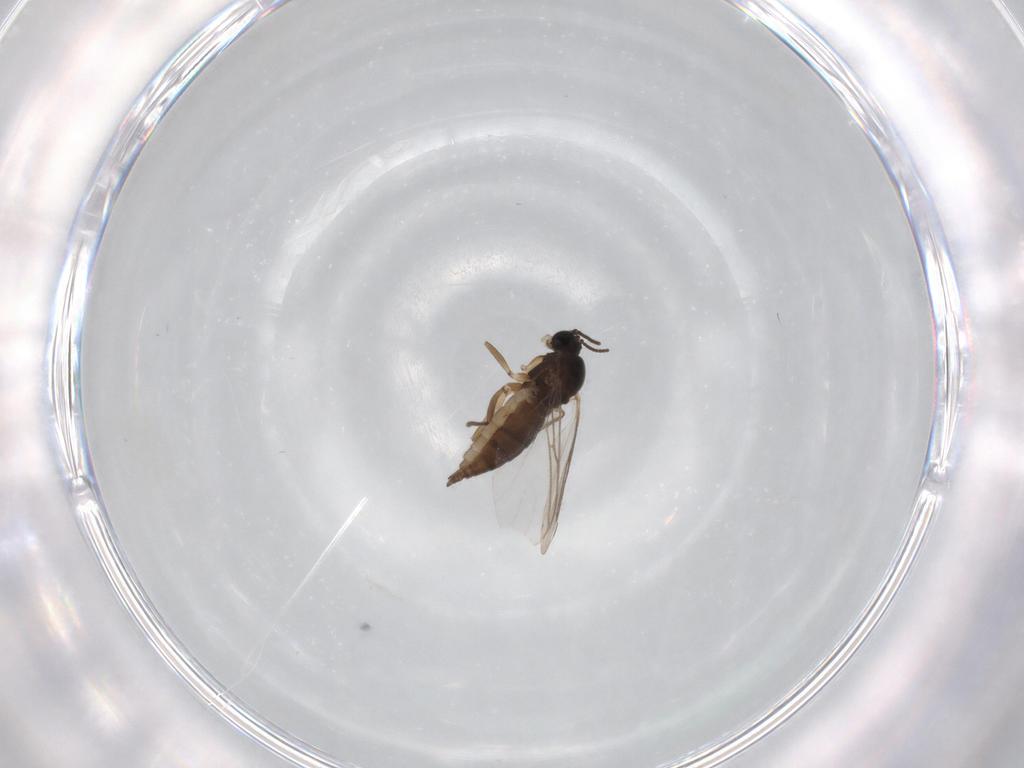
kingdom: Animalia
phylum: Arthropoda
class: Insecta
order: Diptera
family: Sciaridae
